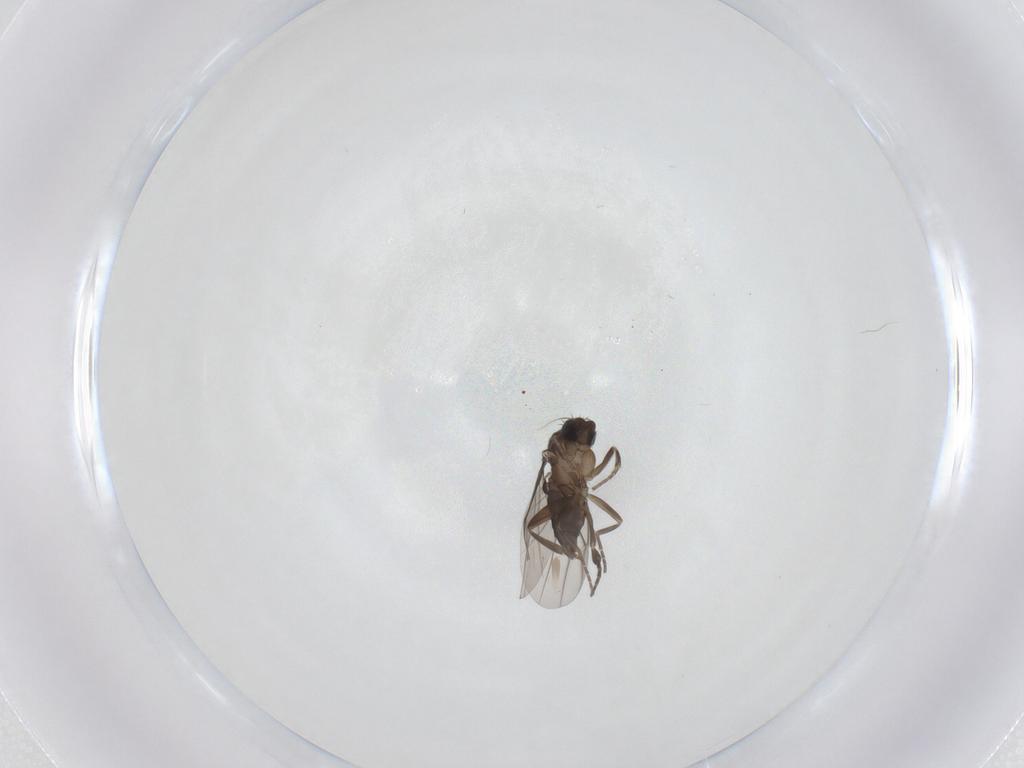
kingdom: Animalia
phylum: Arthropoda
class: Insecta
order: Diptera
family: Phoridae
